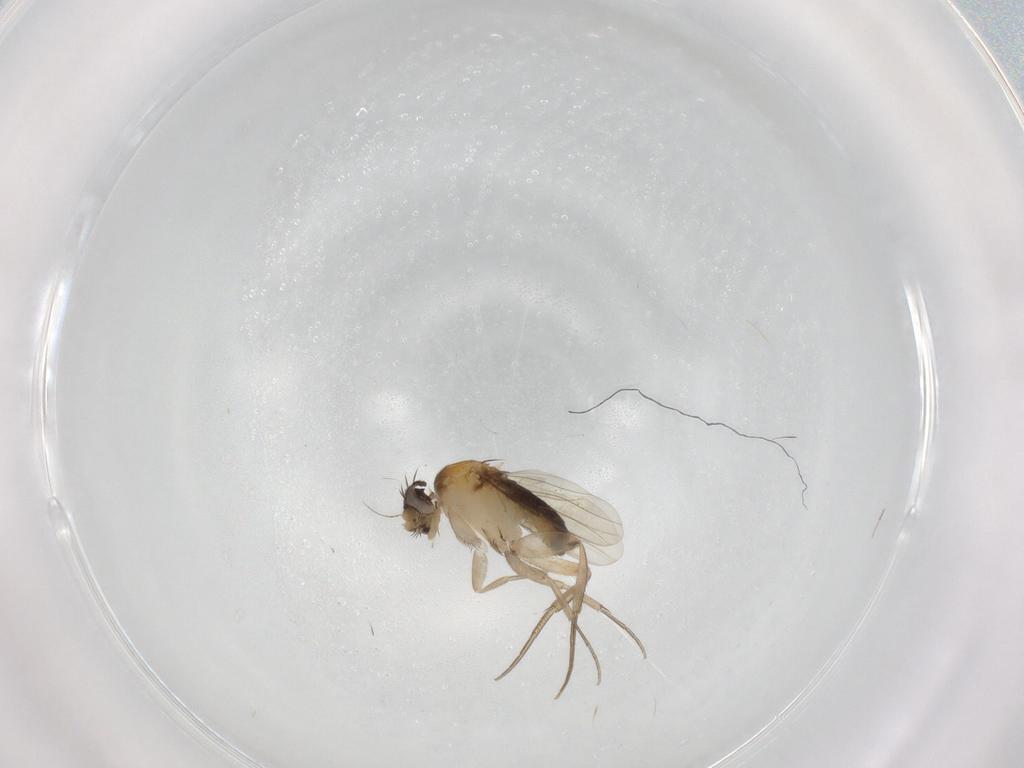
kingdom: Animalia
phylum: Arthropoda
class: Insecta
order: Diptera
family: Phoridae
